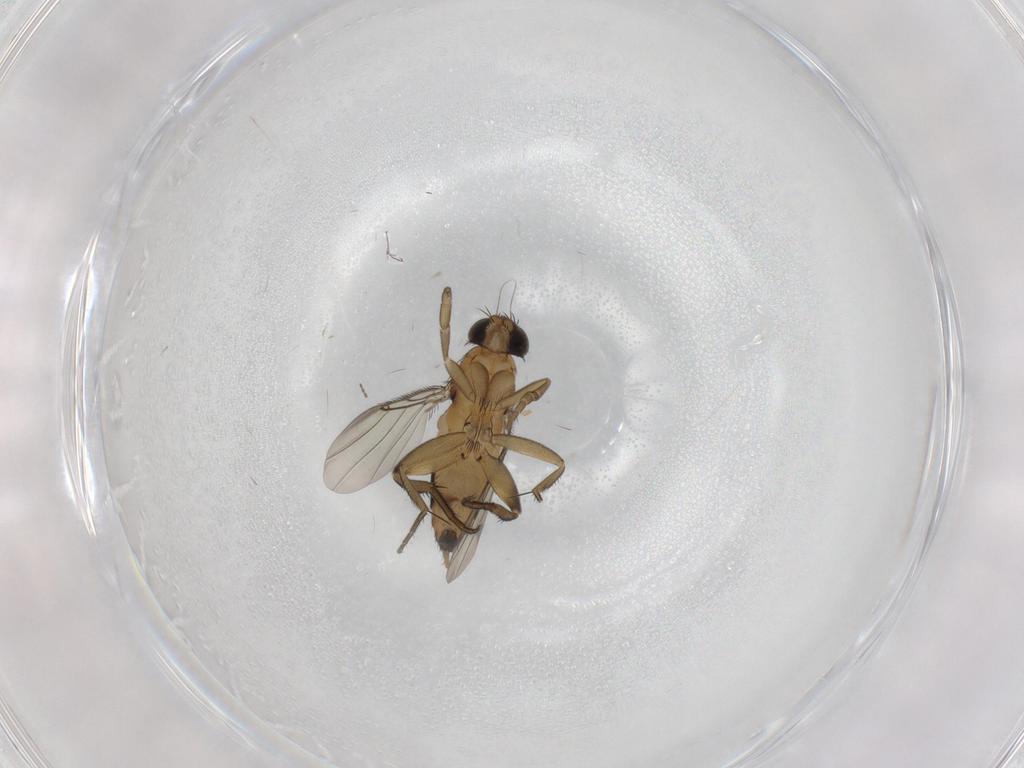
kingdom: Animalia
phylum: Arthropoda
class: Insecta
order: Diptera
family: Phoridae
